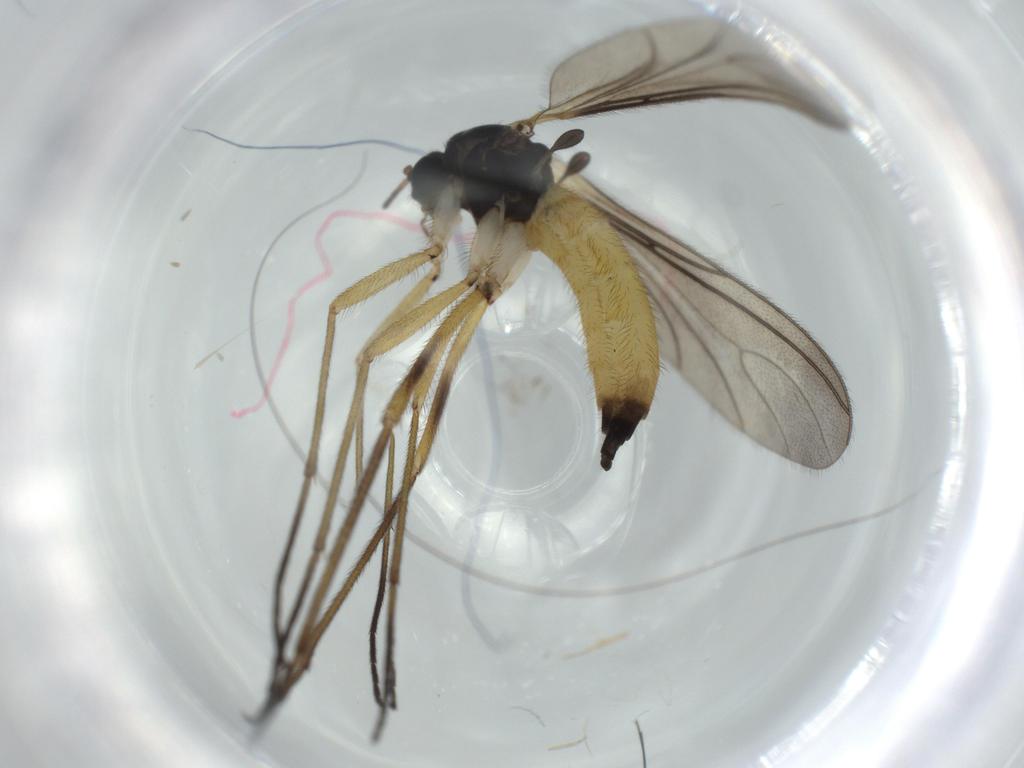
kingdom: Animalia
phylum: Arthropoda
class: Insecta
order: Diptera
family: Sciaridae
